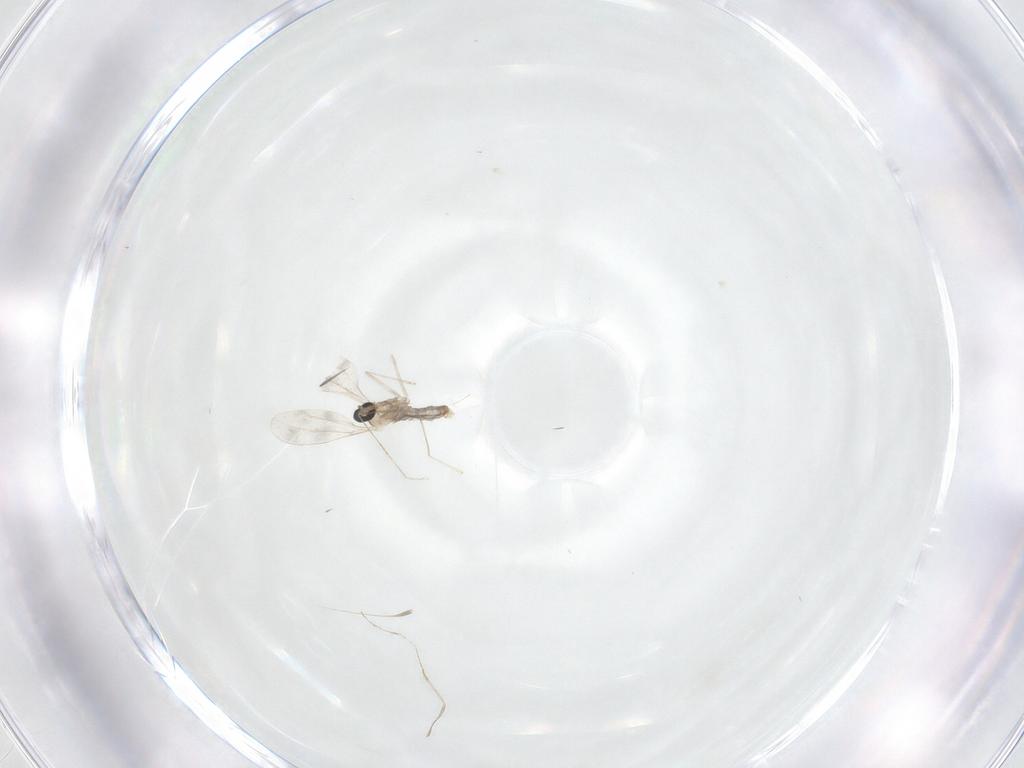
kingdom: Animalia
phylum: Arthropoda
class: Insecta
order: Diptera
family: Cecidomyiidae
